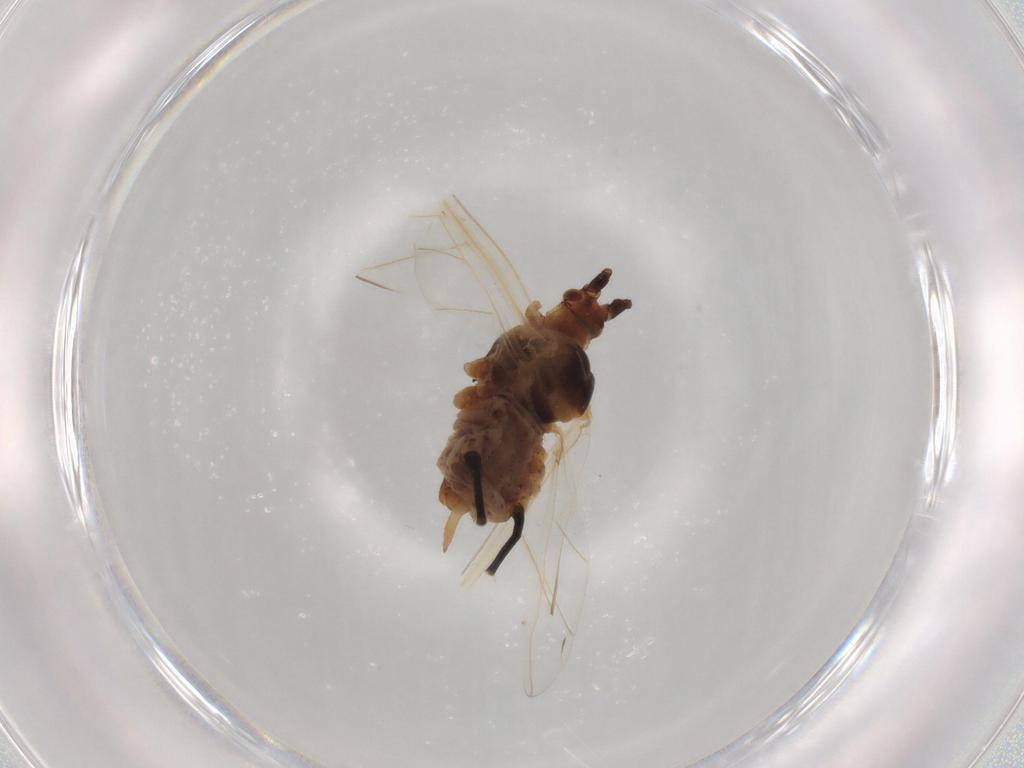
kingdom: Animalia
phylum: Arthropoda
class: Insecta
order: Hemiptera
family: Aphididae
